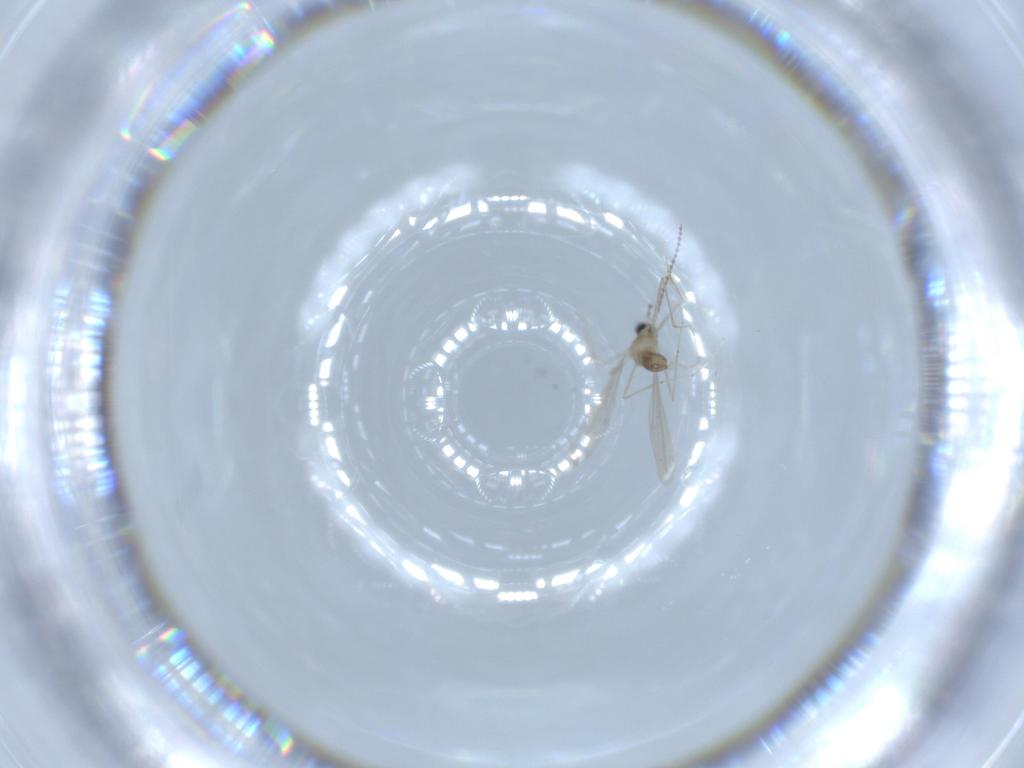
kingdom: Animalia
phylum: Arthropoda
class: Insecta
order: Diptera
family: Cecidomyiidae
